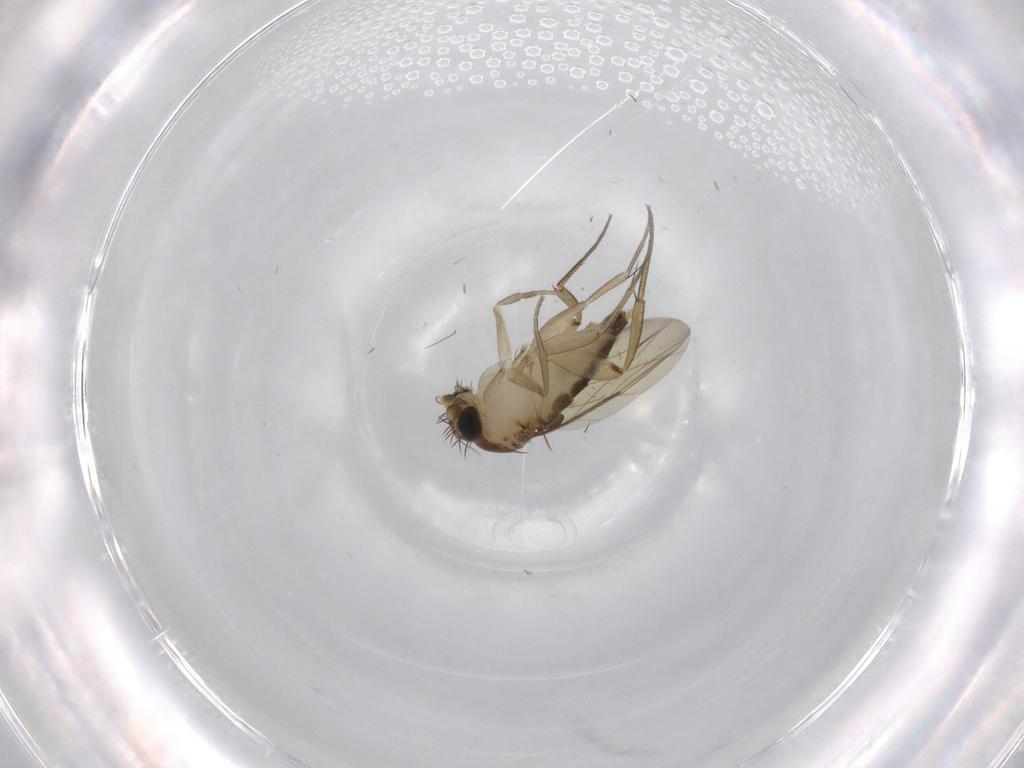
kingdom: Animalia
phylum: Arthropoda
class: Insecta
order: Diptera
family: Phoridae
